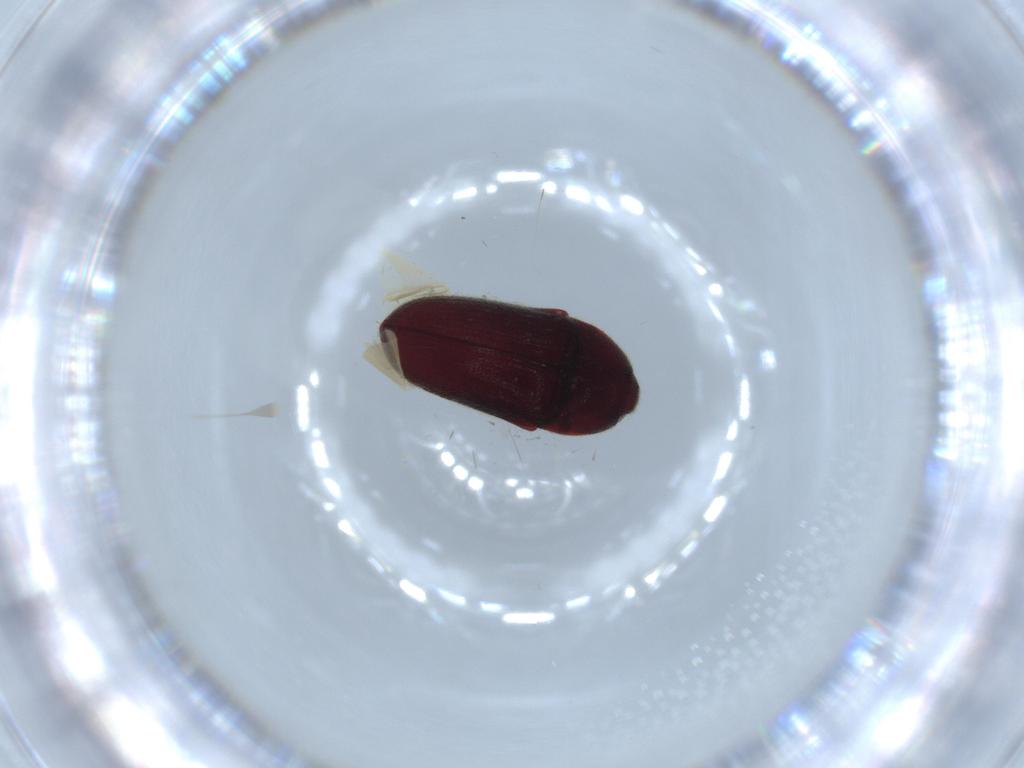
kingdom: Animalia
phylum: Arthropoda
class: Insecta
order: Coleoptera
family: Throscidae
